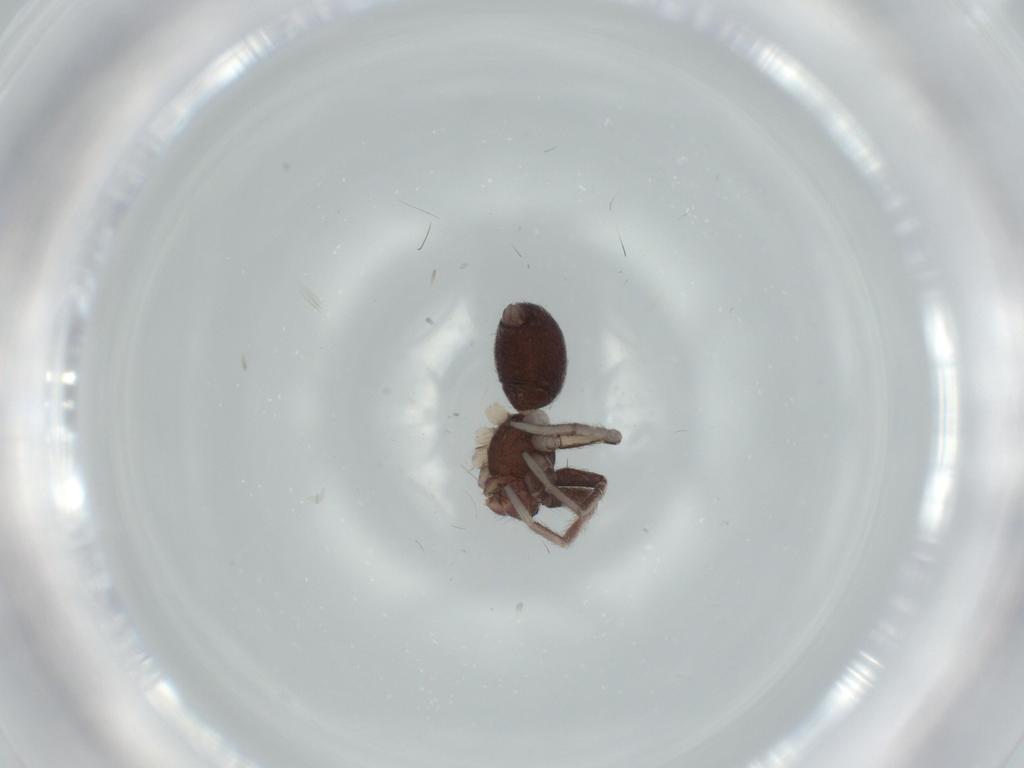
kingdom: Animalia
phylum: Arthropoda
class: Arachnida
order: Araneae
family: Corinnidae
